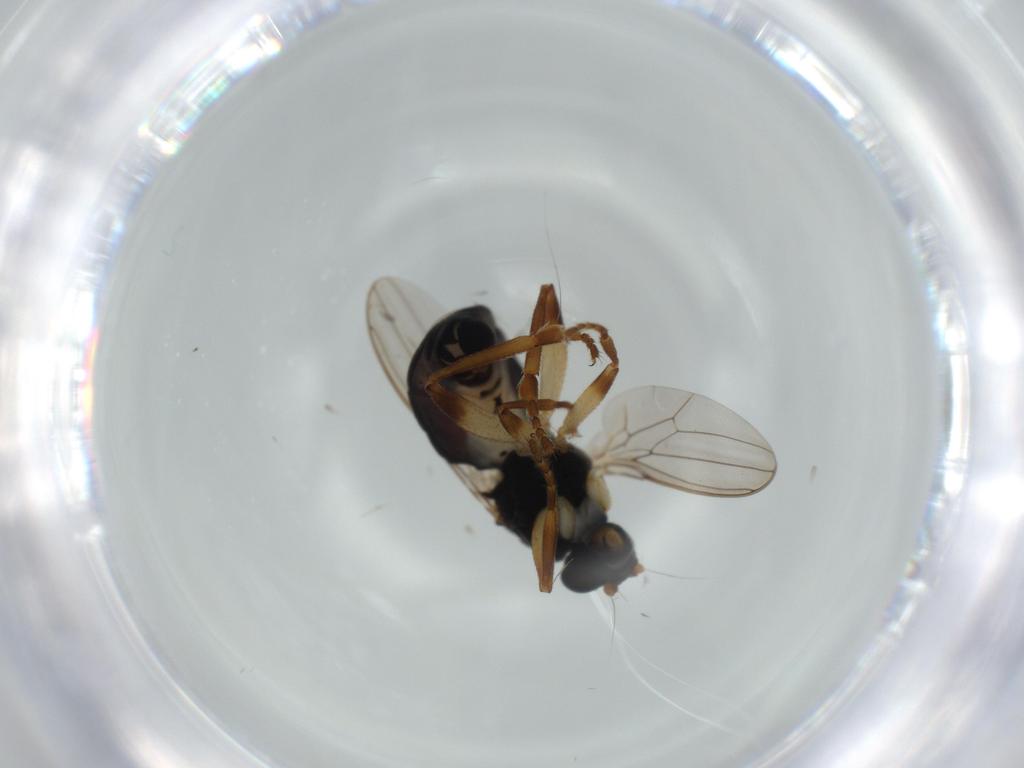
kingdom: Animalia
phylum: Arthropoda
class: Insecta
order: Diptera
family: Sphaeroceridae
